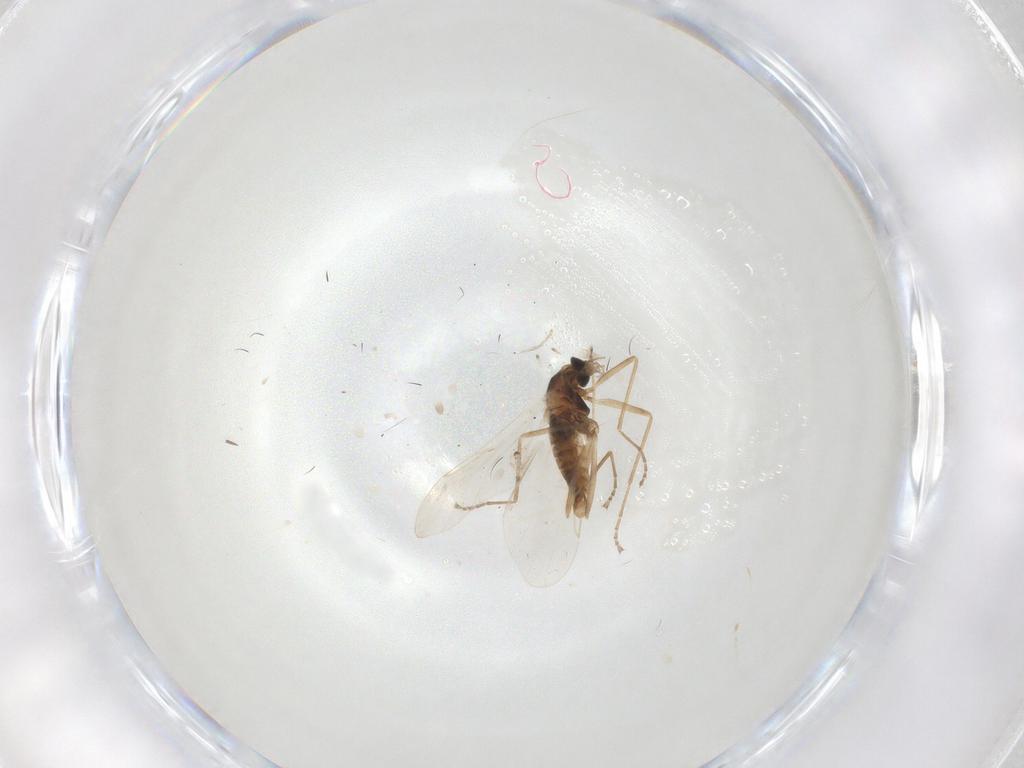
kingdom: Animalia
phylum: Arthropoda
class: Insecta
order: Diptera
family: Cecidomyiidae
